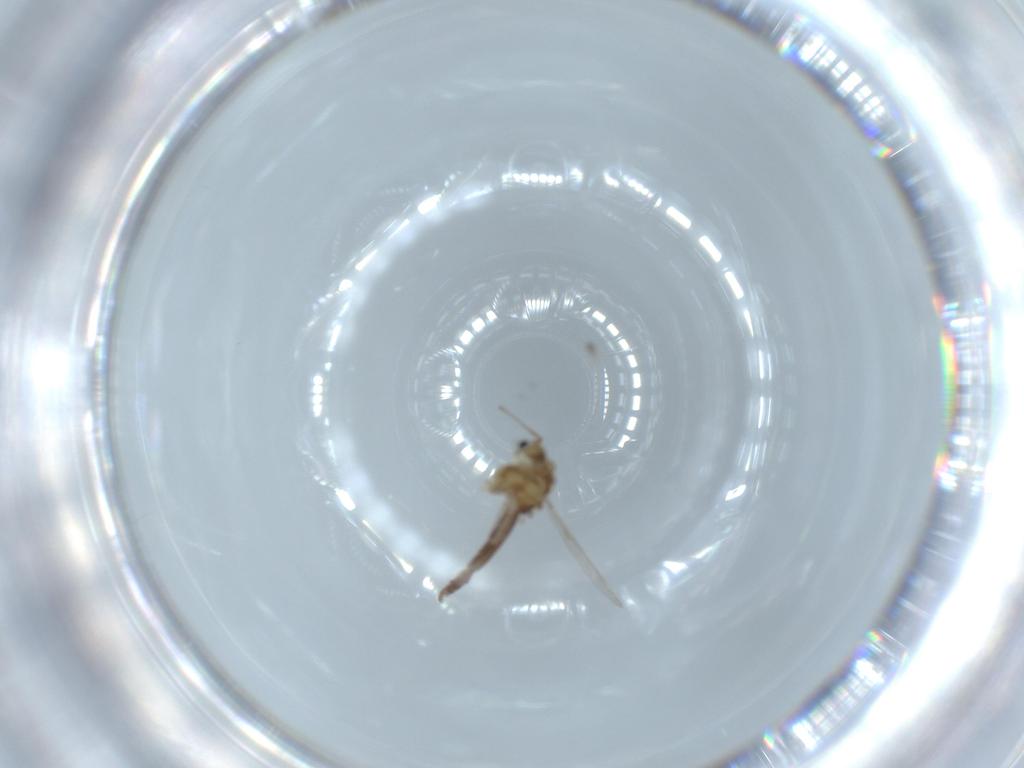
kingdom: Animalia
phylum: Arthropoda
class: Insecta
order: Diptera
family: Chironomidae
